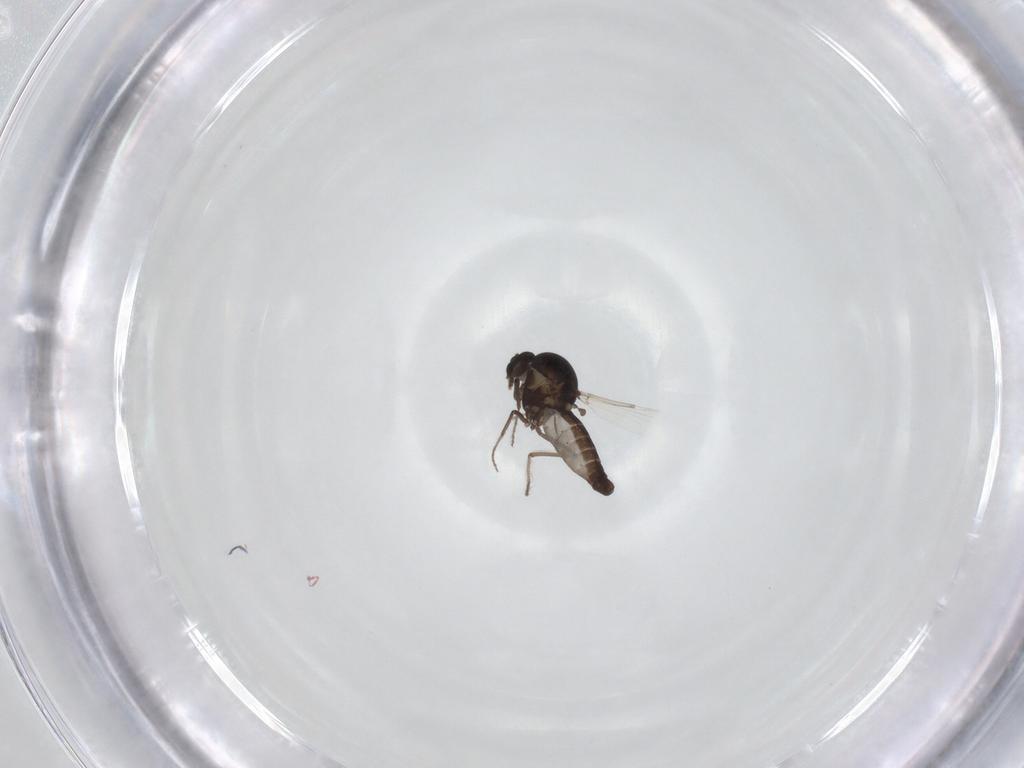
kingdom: Animalia
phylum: Arthropoda
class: Insecta
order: Diptera
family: Ceratopogonidae
